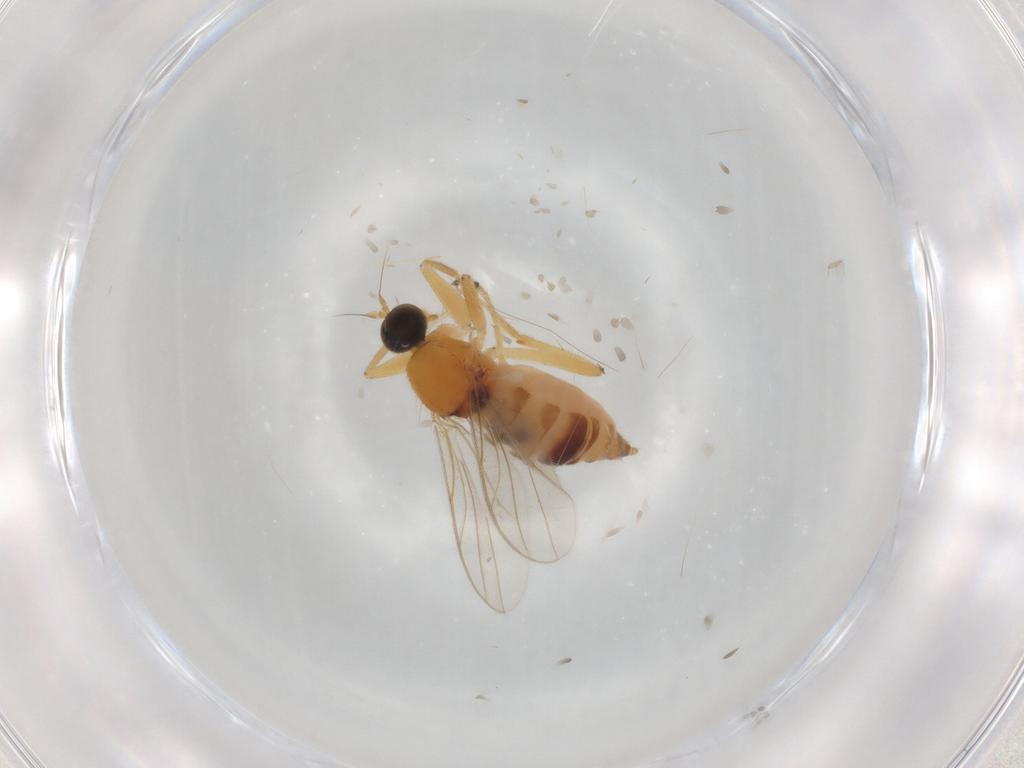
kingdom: Animalia
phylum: Arthropoda
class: Insecta
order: Diptera
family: Hybotidae
